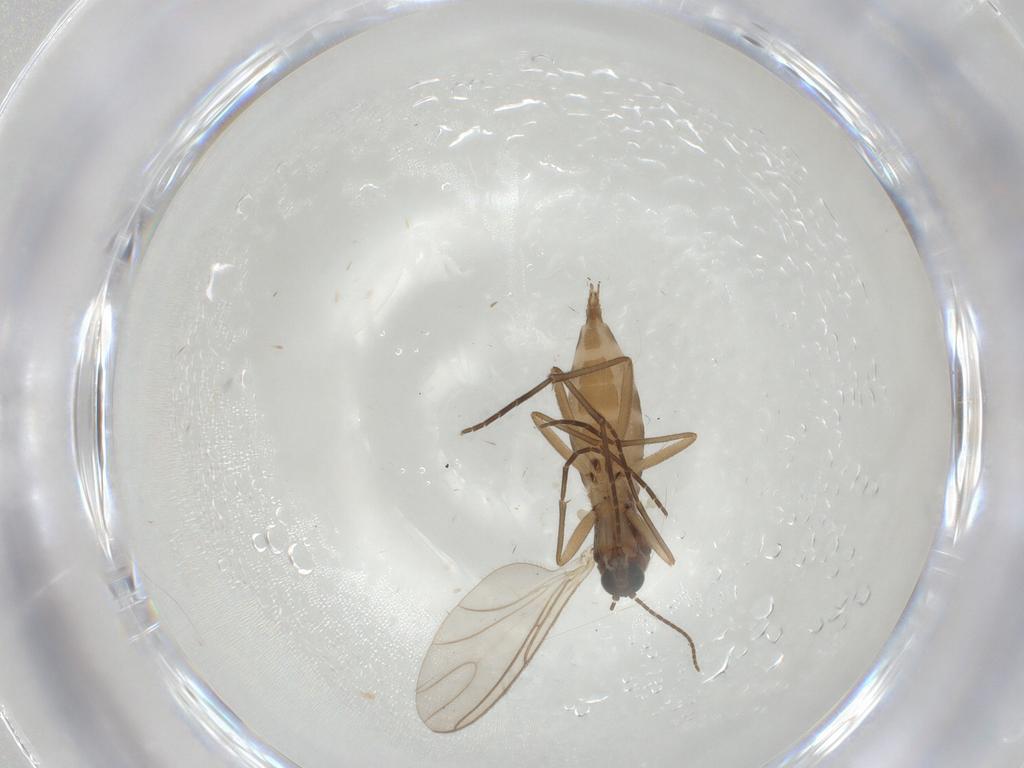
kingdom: Animalia
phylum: Arthropoda
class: Insecta
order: Diptera
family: Sciaridae
